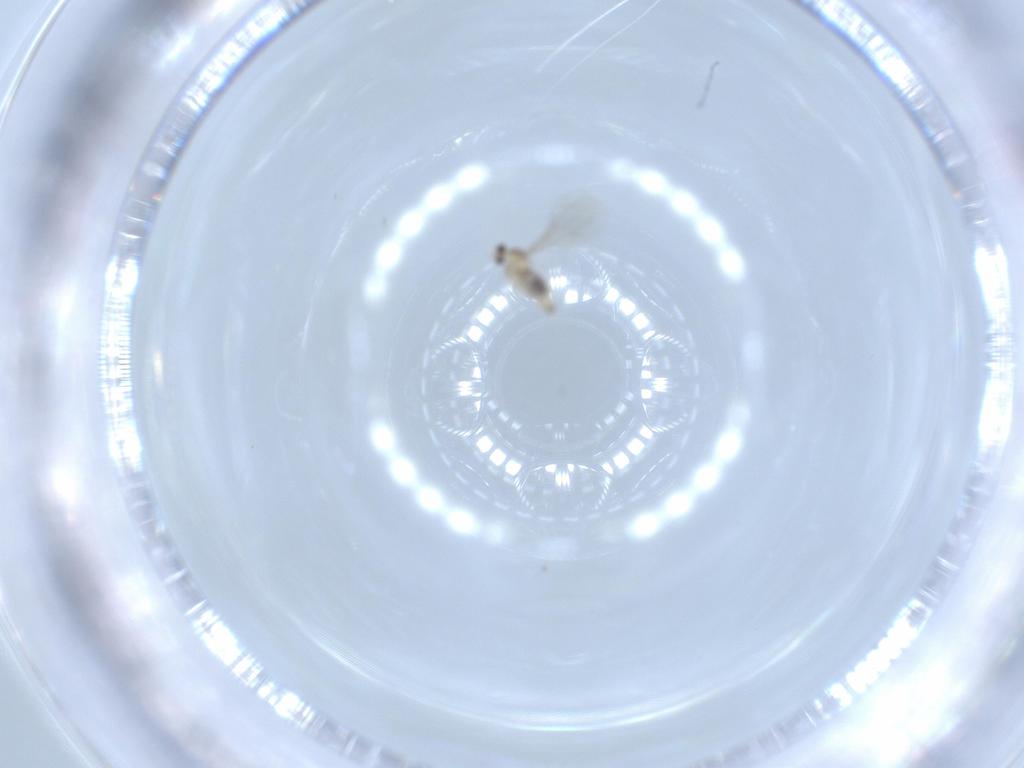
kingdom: Animalia
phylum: Arthropoda
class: Insecta
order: Diptera
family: Cecidomyiidae
